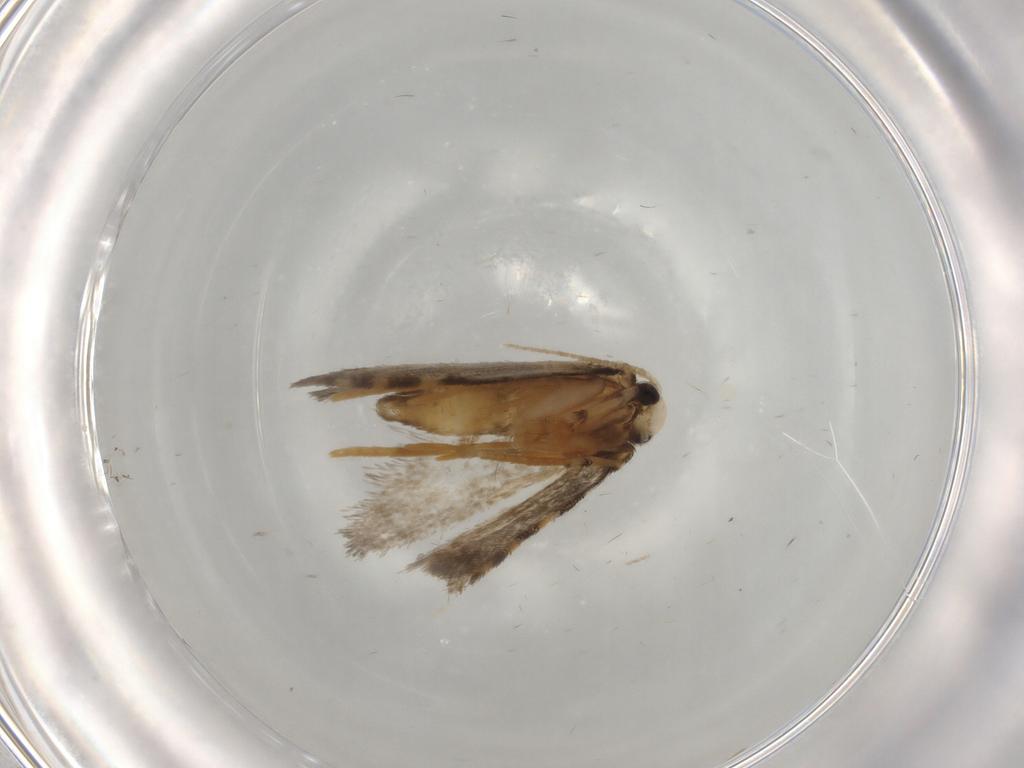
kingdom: Animalia
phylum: Arthropoda
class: Insecta
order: Lepidoptera
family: Psychidae
